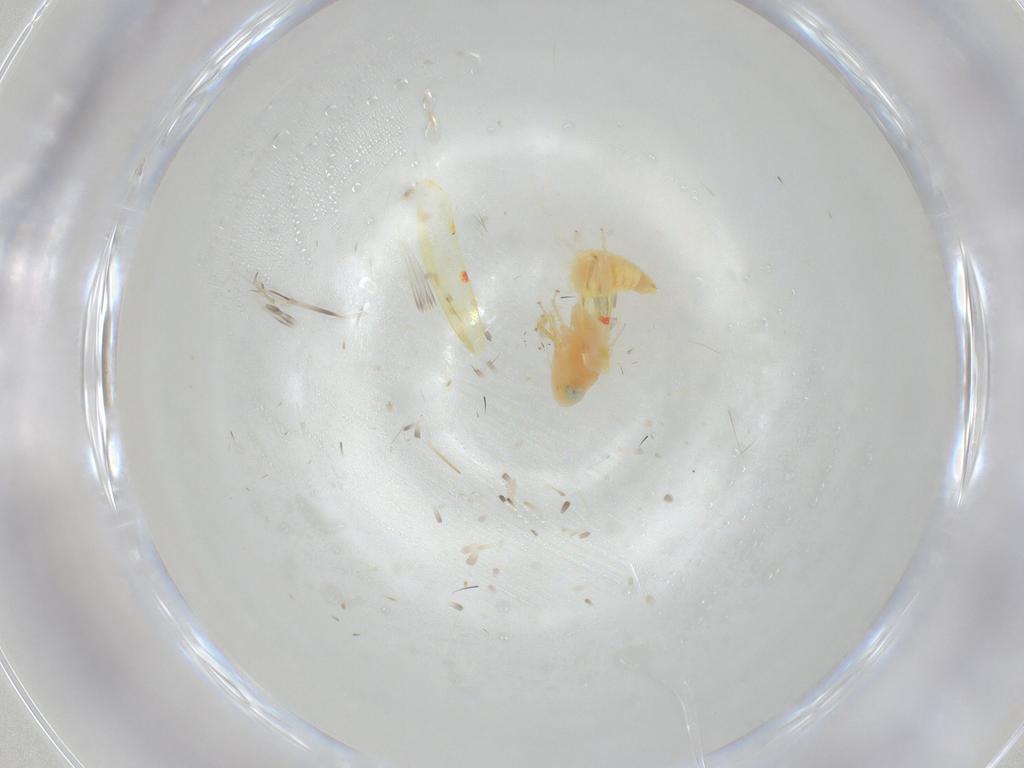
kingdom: Animalia
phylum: Arthropoda
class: Insecta
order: Hemiptera
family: Cicadellidae
